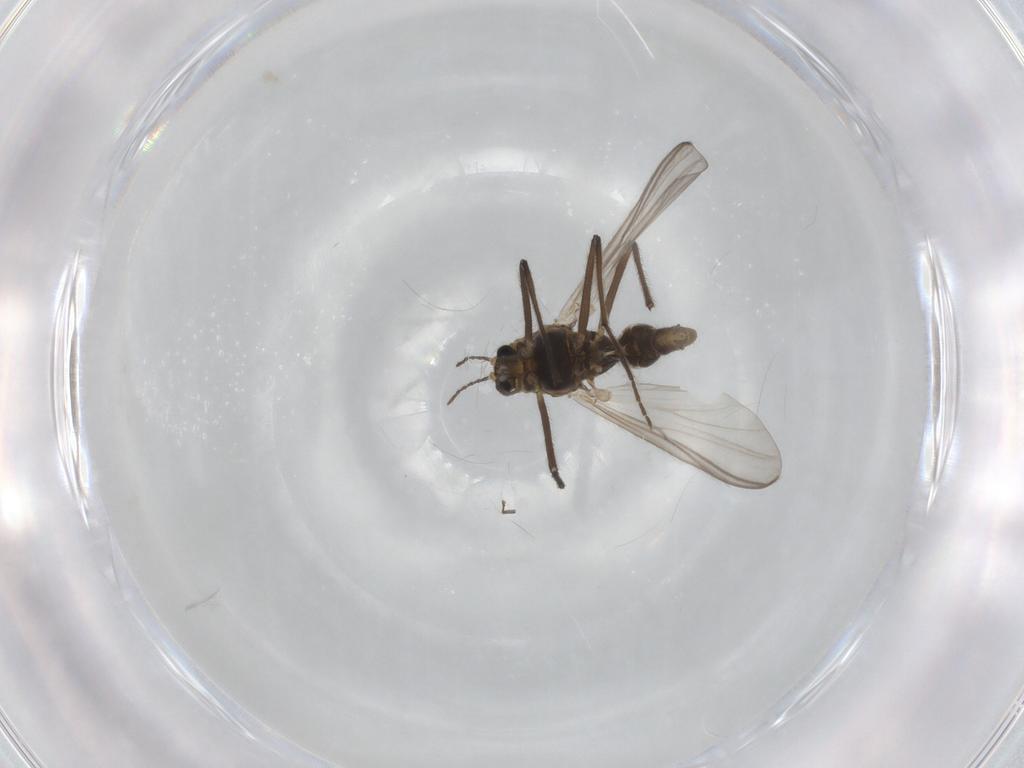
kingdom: Animalia
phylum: Arthropoda
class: Insecta
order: Diptera
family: Chironomidae
